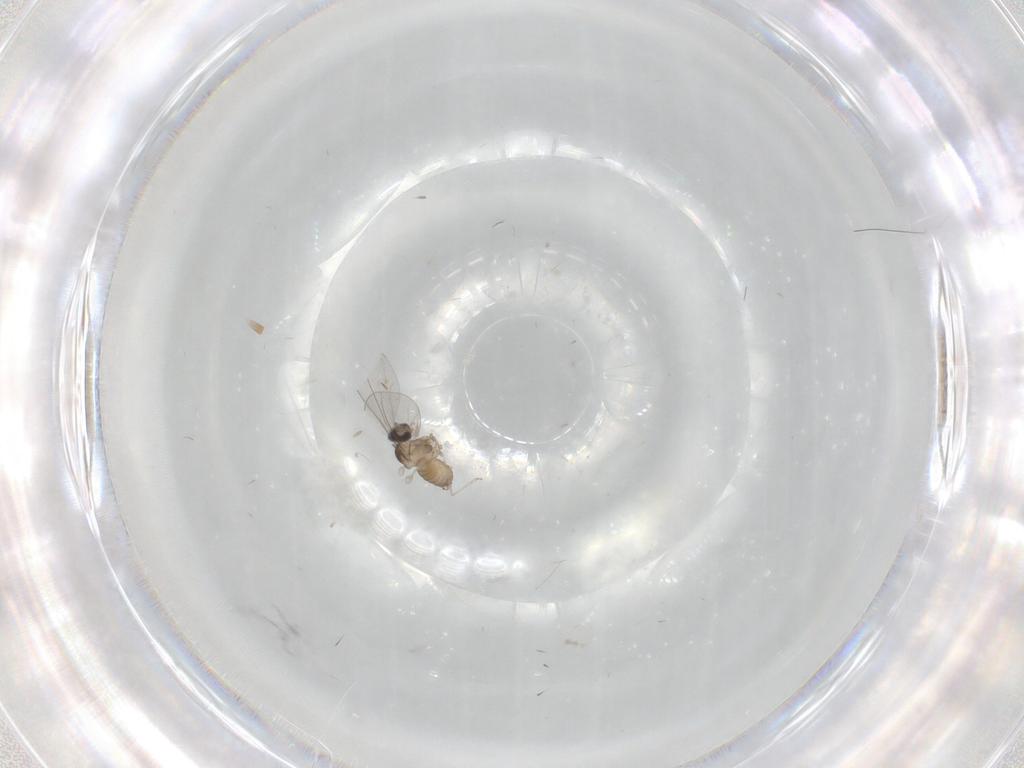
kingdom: Animalia
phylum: Arthropoda
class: Insecta
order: Diptera
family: Cecidomyiidae
